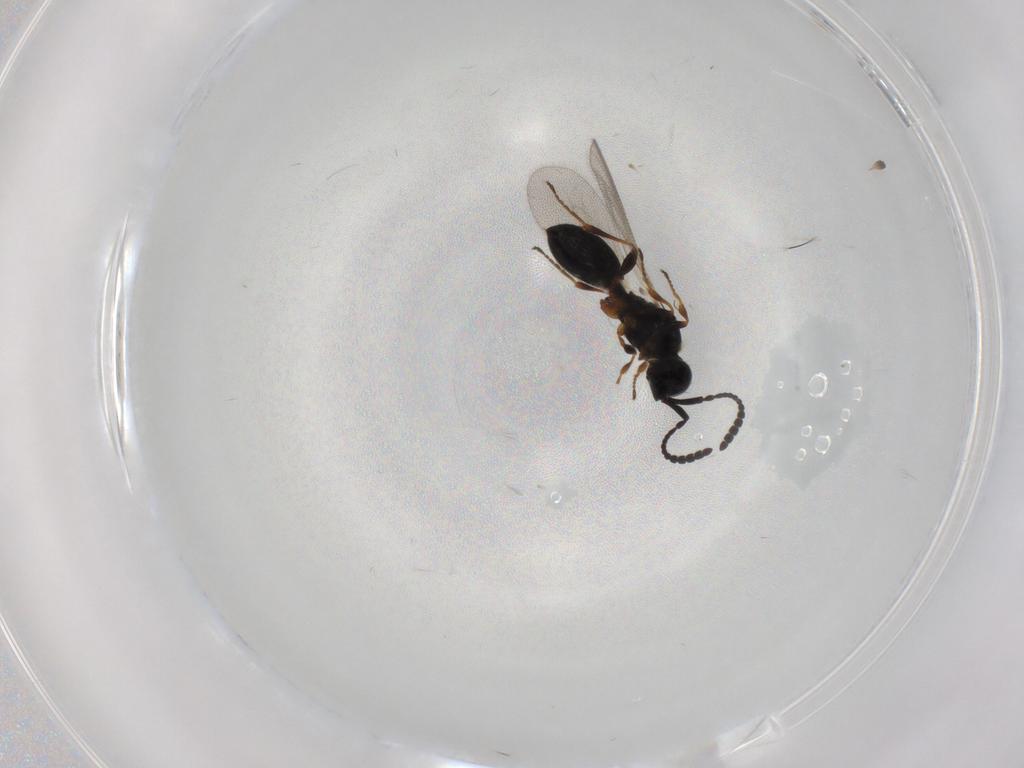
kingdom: Animalia
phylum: Arthropoda
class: Insecta
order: Hymenoptera
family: Diapriidae
